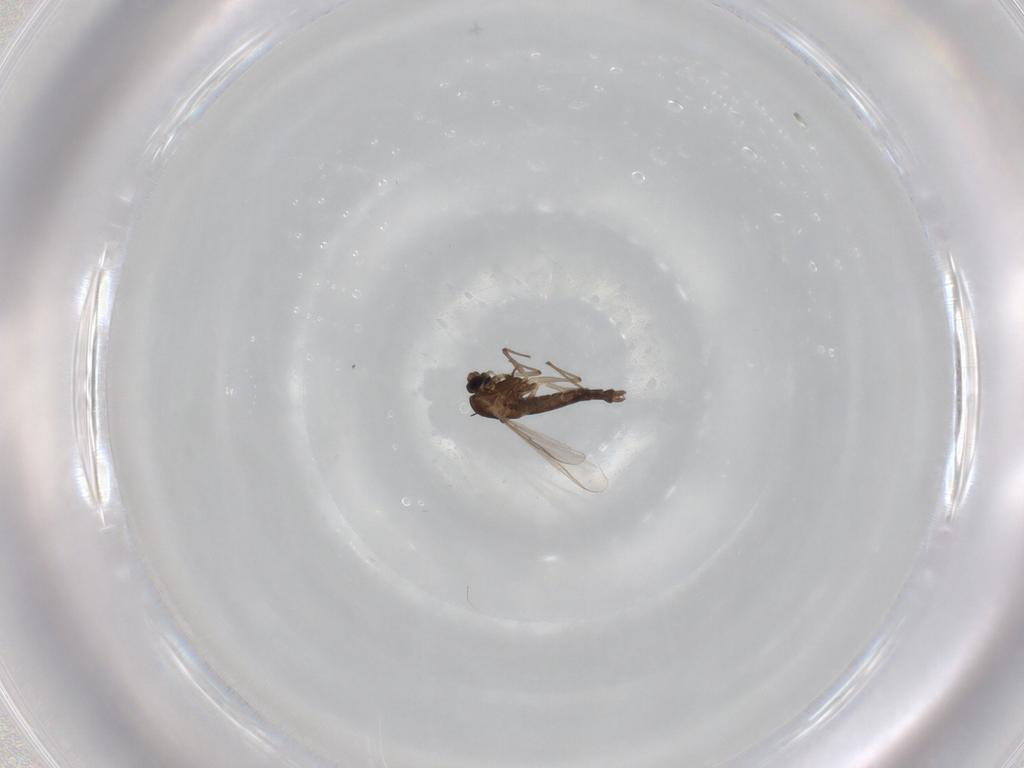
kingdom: Animalia
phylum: Arthropoda
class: Insecta
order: Diptera
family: Chironomidae
